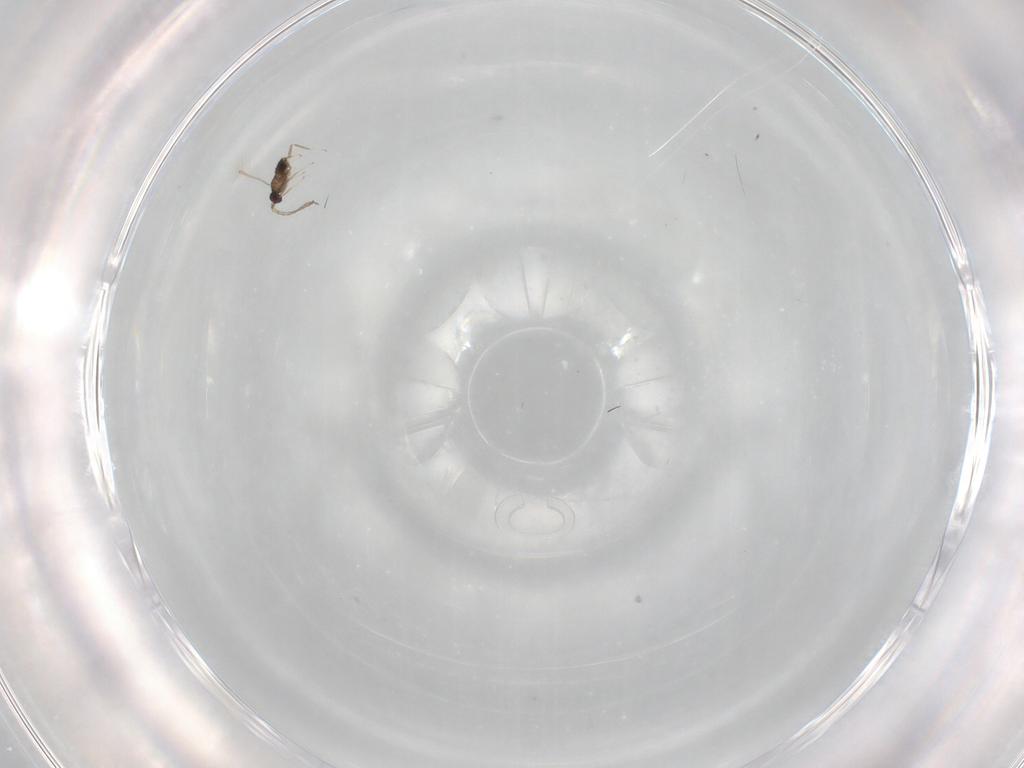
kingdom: Animalia
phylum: Arthropoda
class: Insecta
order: Hymenoptera
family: Mymaridae
